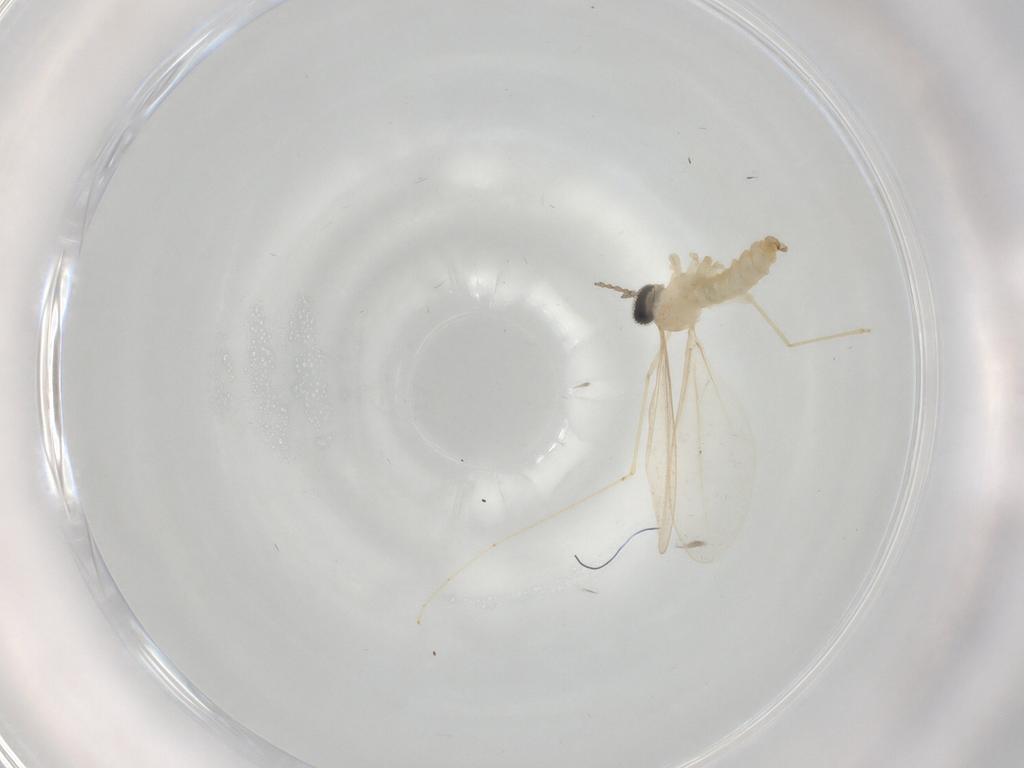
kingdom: Animalia
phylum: Arthropoda
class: Insecta
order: Diptera
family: Cecidomyiidae
